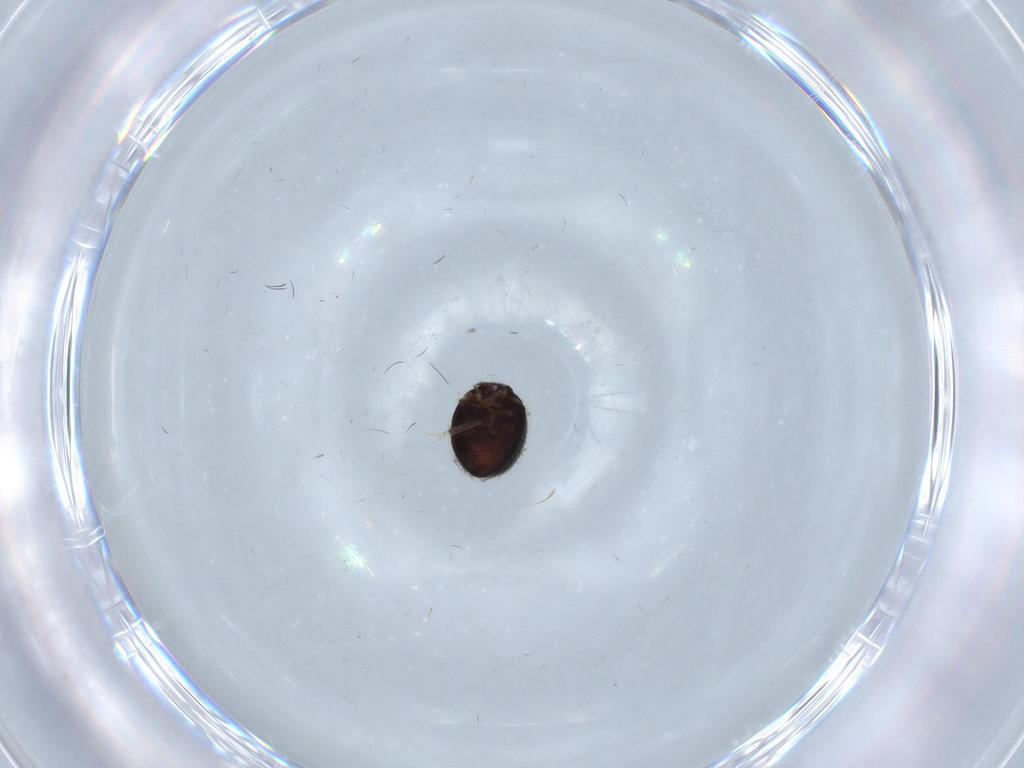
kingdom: Animalia
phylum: Arthropoda
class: Insecta
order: Coleoptera
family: Coccinellidae
